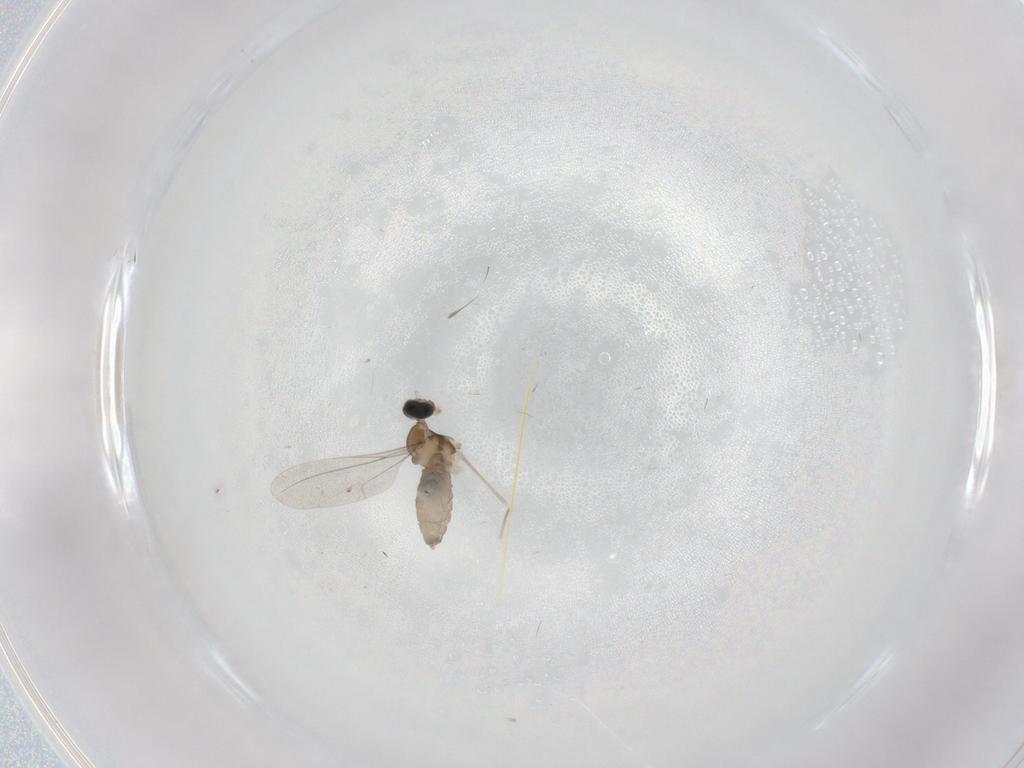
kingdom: Animalia
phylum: Arthropoda
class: Insecta
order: Diptera
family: Cecidomyiidae
